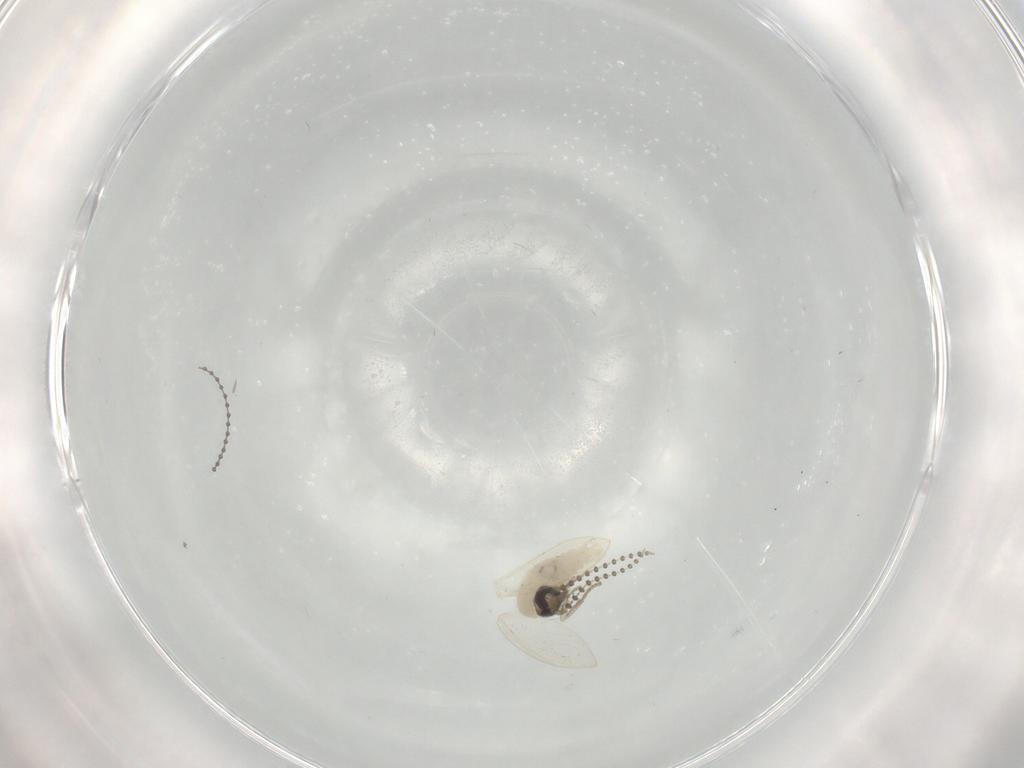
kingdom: Animalia
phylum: Arthropoda
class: Insecta
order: Diptera
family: Psychodidae
